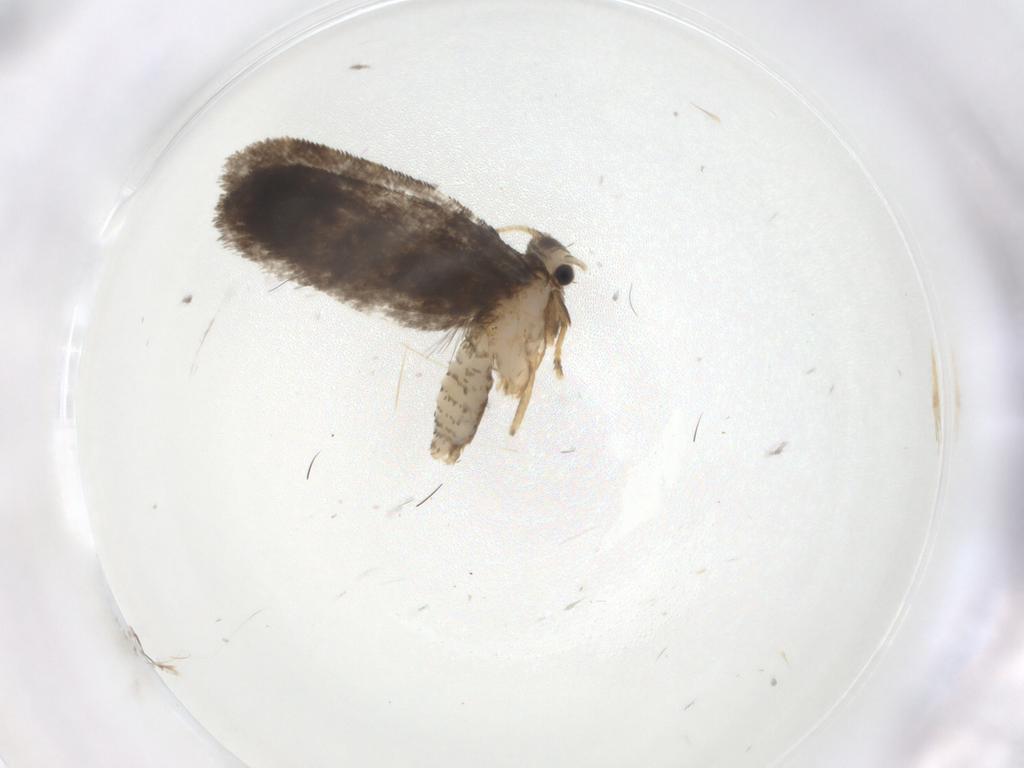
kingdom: Animalia
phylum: Arthropoda
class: Insecta
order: Lepidoptera
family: Psychidae
